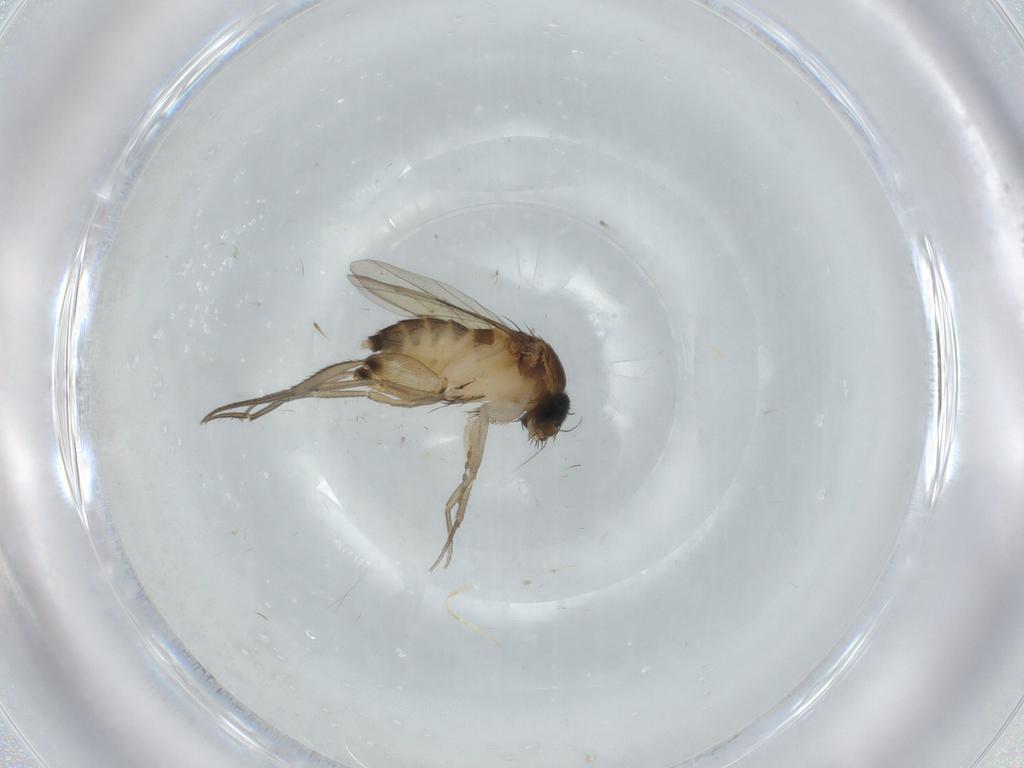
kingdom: Animalia
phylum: Arthropoda
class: Insecta
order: Diptera
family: Phoridae
